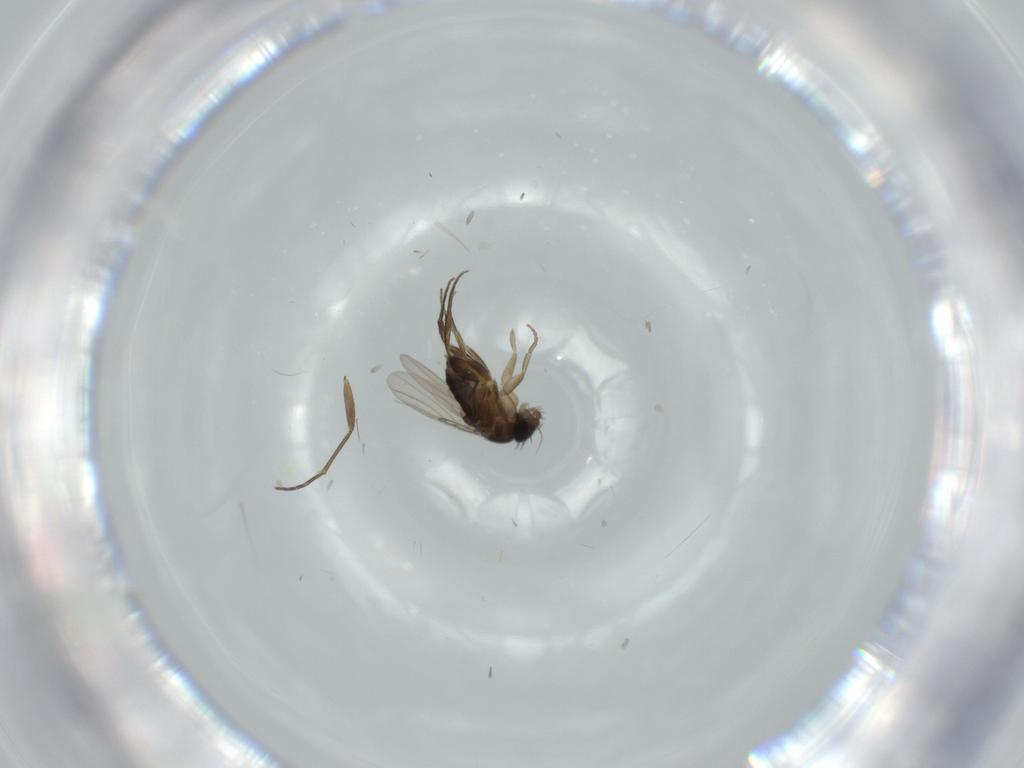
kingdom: Animalia
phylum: Arthropoda
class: Insecta
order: Diptera
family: Phoridae
